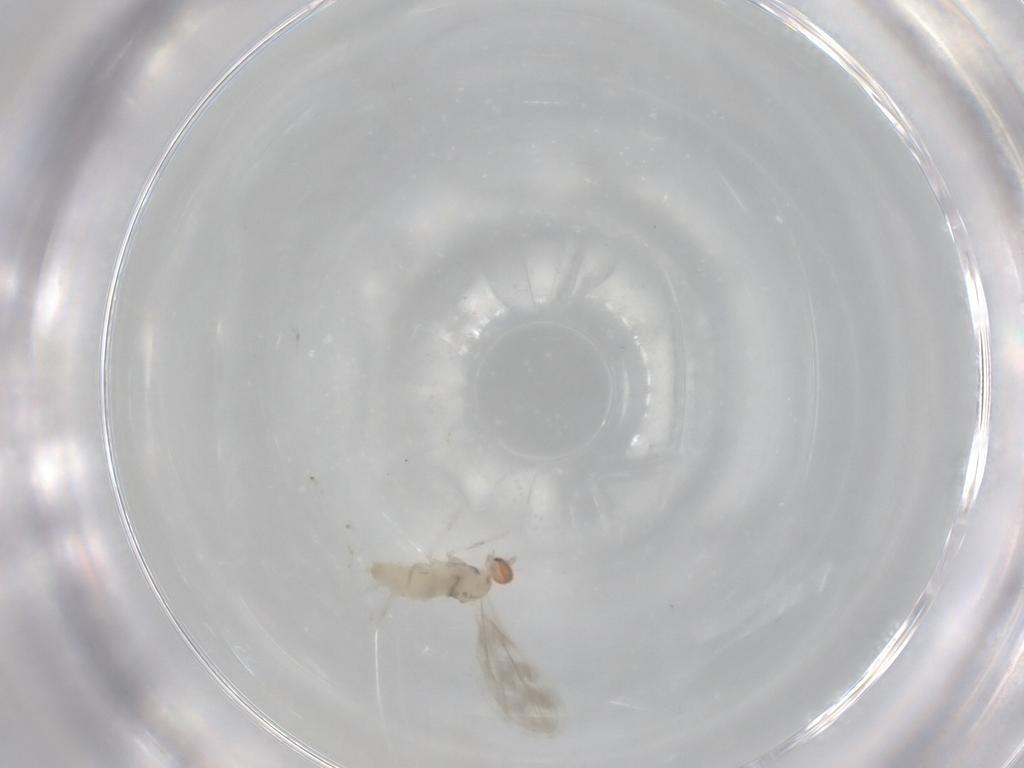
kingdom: Animalia
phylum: Arthropoda
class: Insecta
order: Diptera
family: Cecidomyiidae
